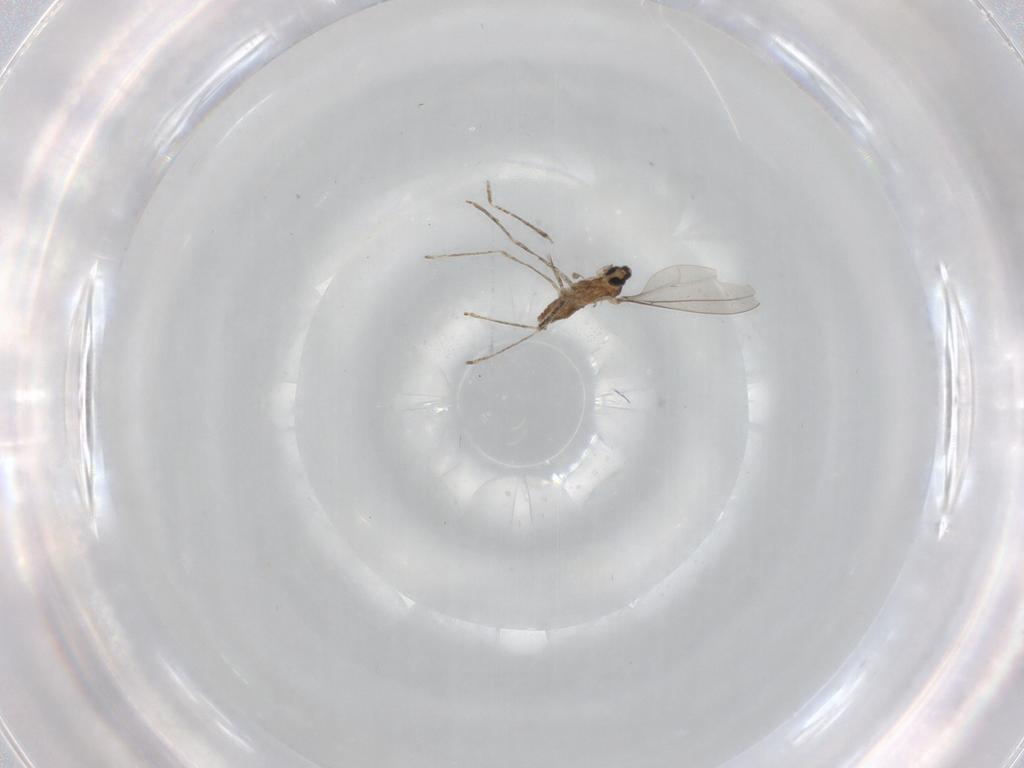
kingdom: Animalia
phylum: Arthropoda
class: Insecta
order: Diptera
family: Cecidomyiidae
